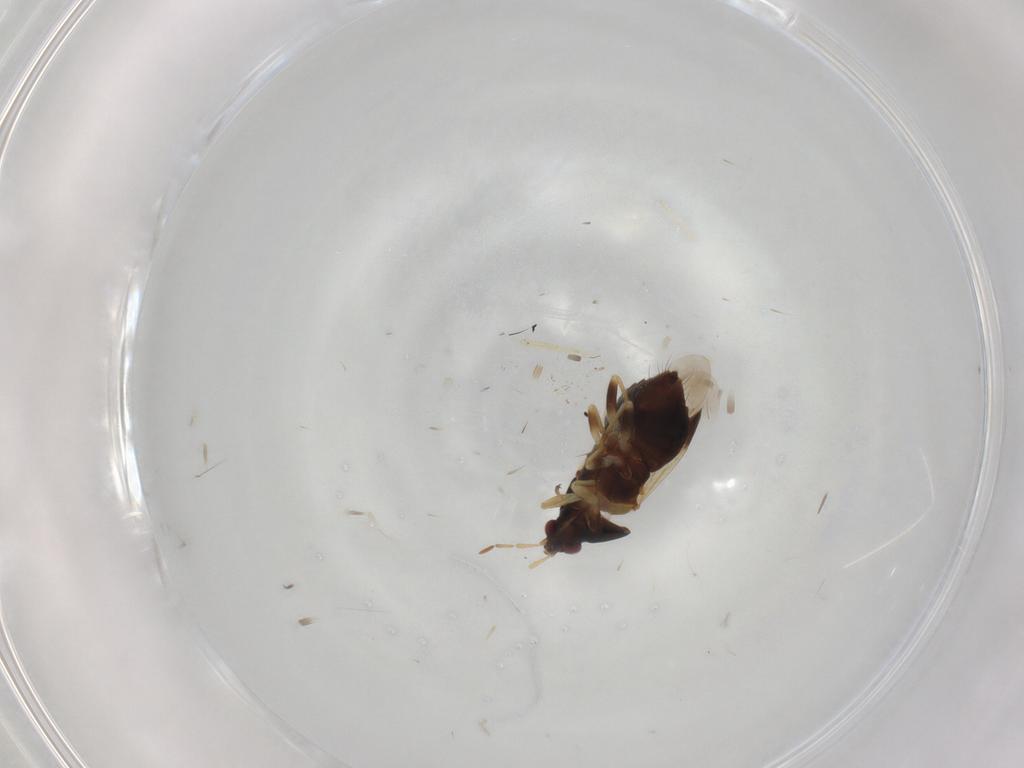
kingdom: Animalia
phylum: Arthropoda
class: Insecta
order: Hemiptera
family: Anthocoridae
